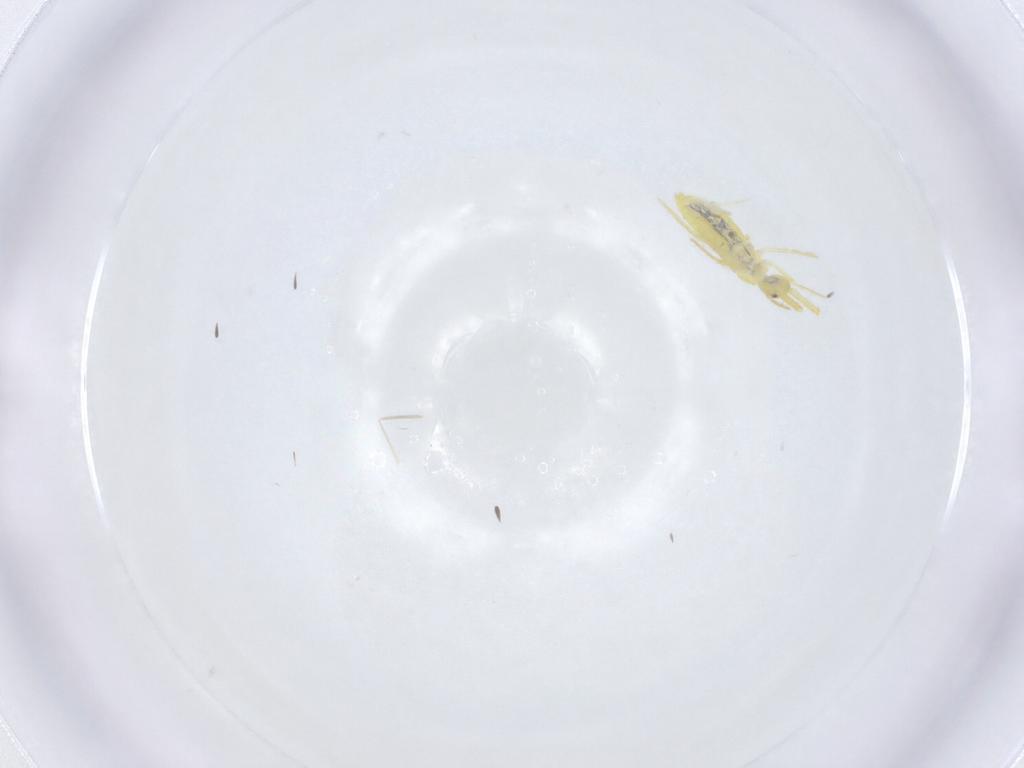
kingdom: Animalia
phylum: Arthropoda
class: Collembola
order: Entomobryomorpha
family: Paronellidae
